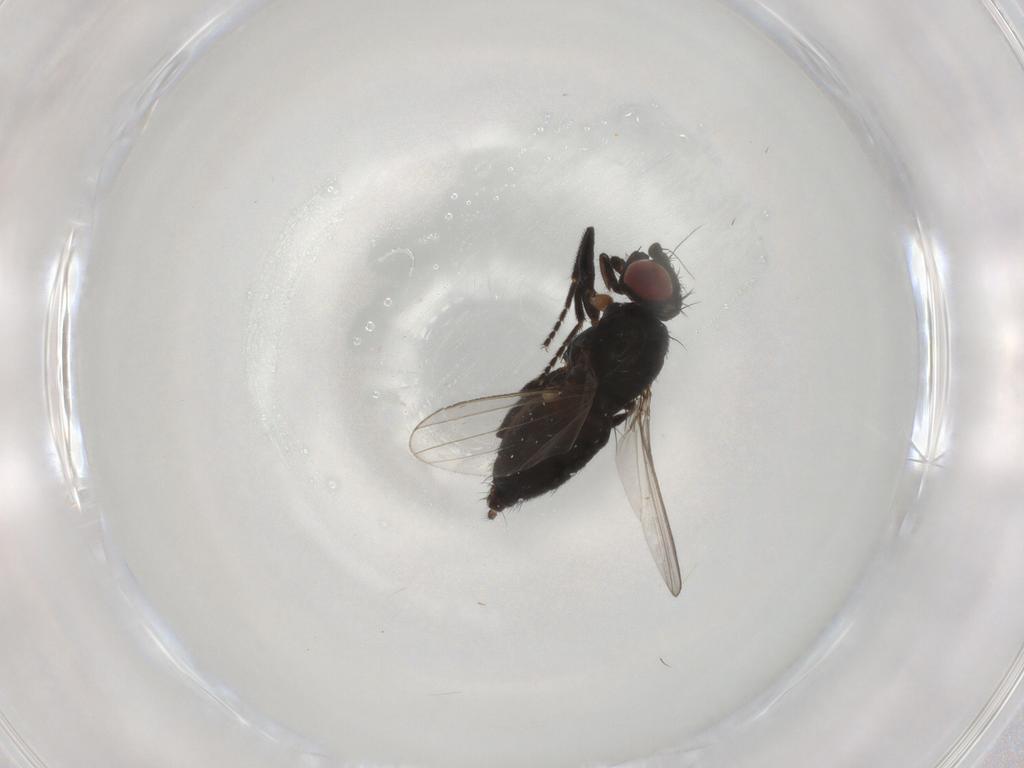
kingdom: Animalia
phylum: Arthropoda
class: Insecta
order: Diptera
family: Milichiidae
